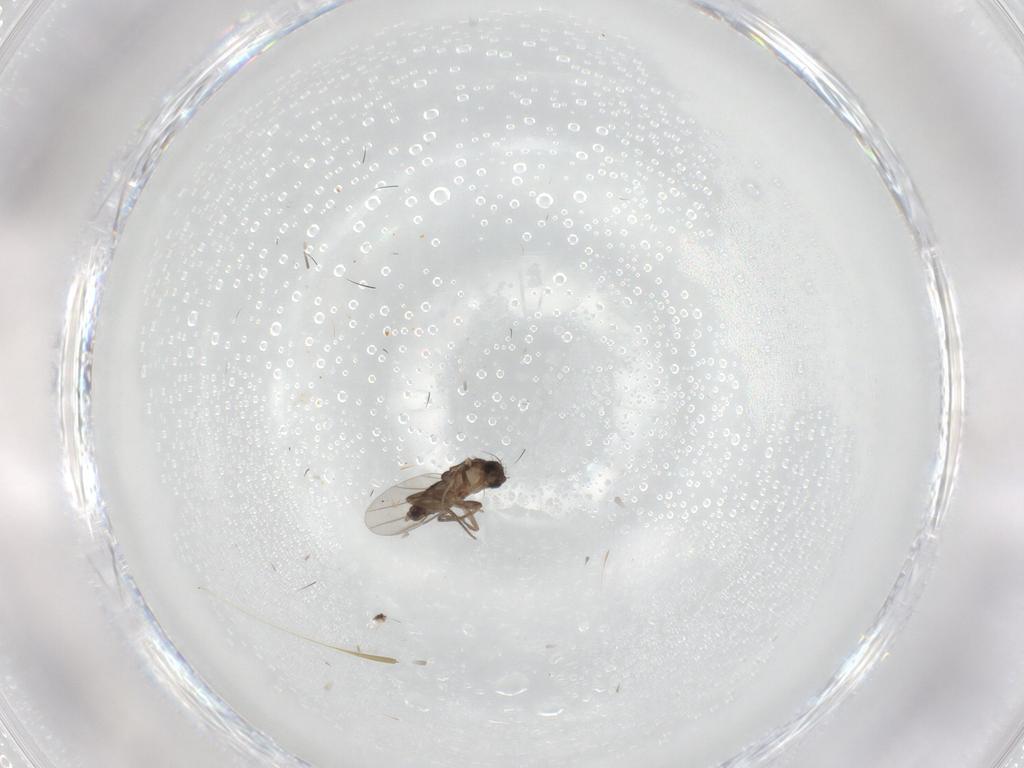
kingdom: Animalia
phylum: Arthropoda
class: Insecta
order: Diptera
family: Phoridae
